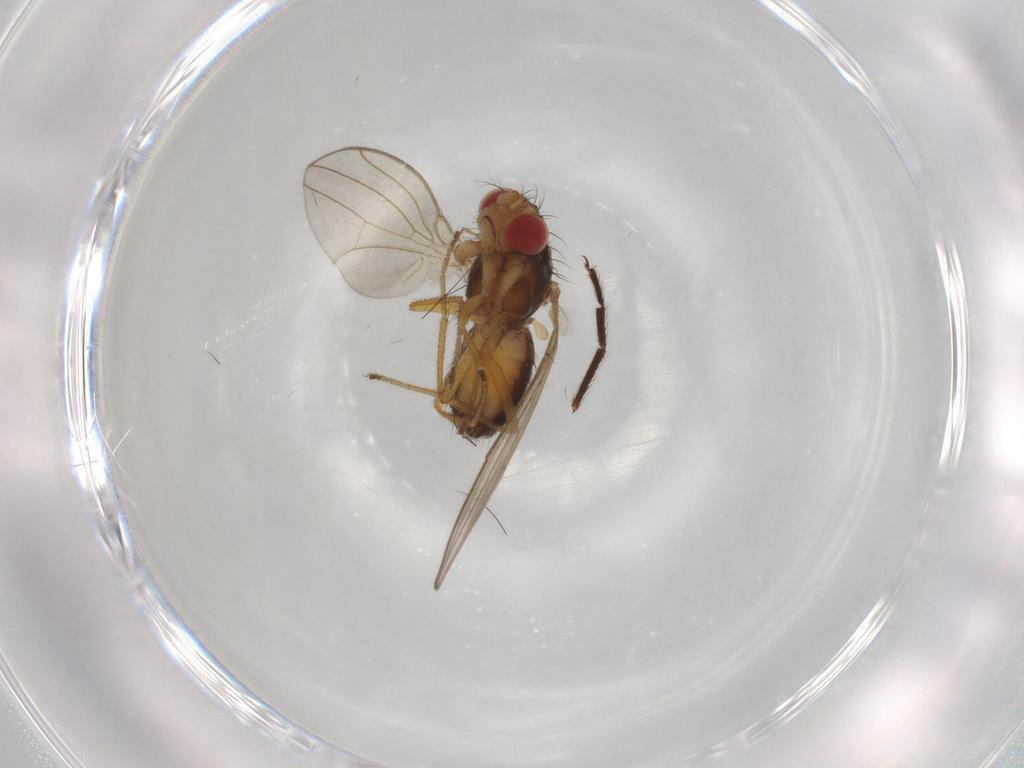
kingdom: Animalia
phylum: Arthropoda
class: Insecta
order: Diptera
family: Drosophilidae
